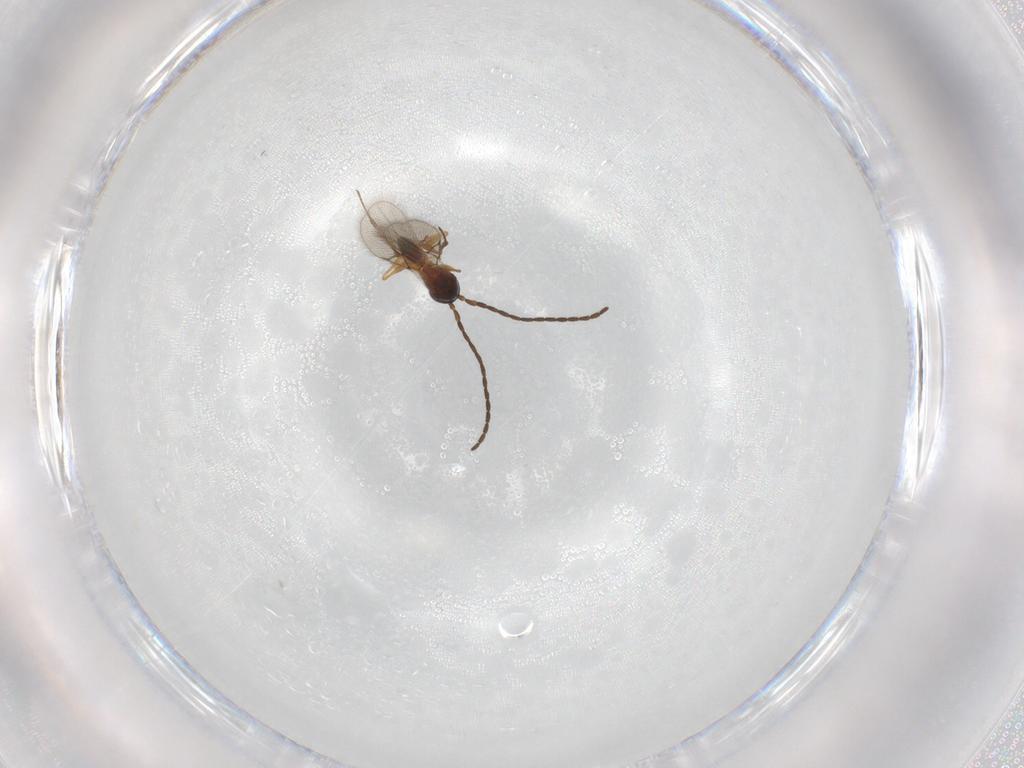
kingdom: Animalia
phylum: Arthropoda
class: Insecta
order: Hymenoptera
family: Figitidae
